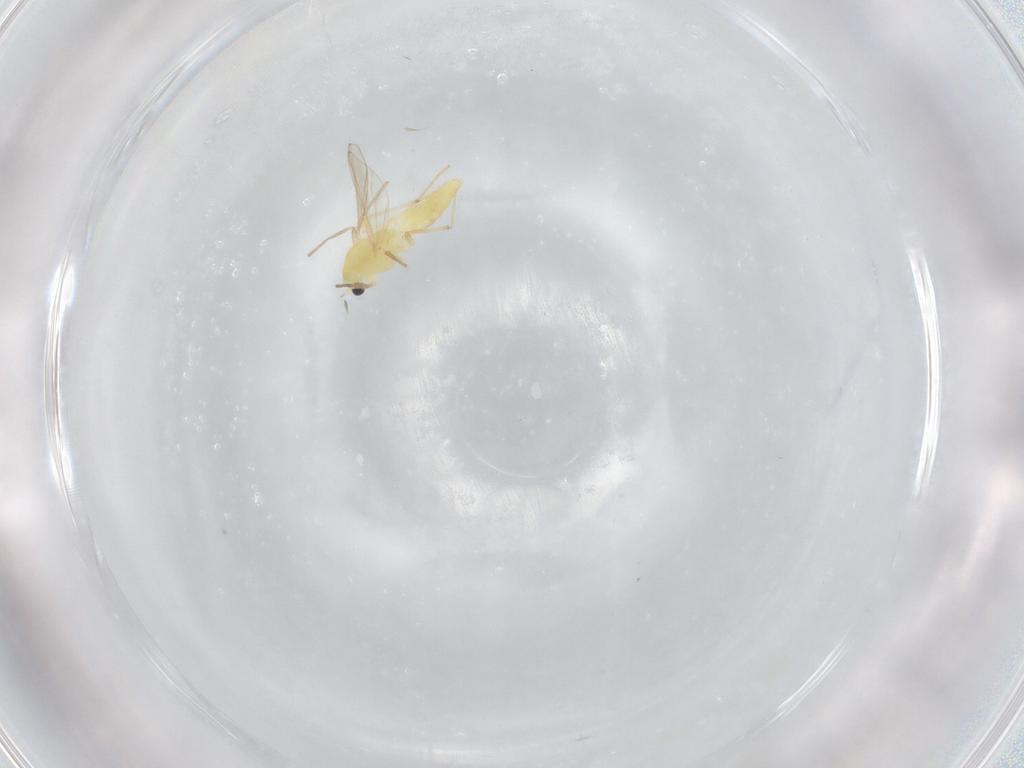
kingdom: Animalia
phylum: Arthropoda
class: Insecta
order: Diptera
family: Chironomidae
